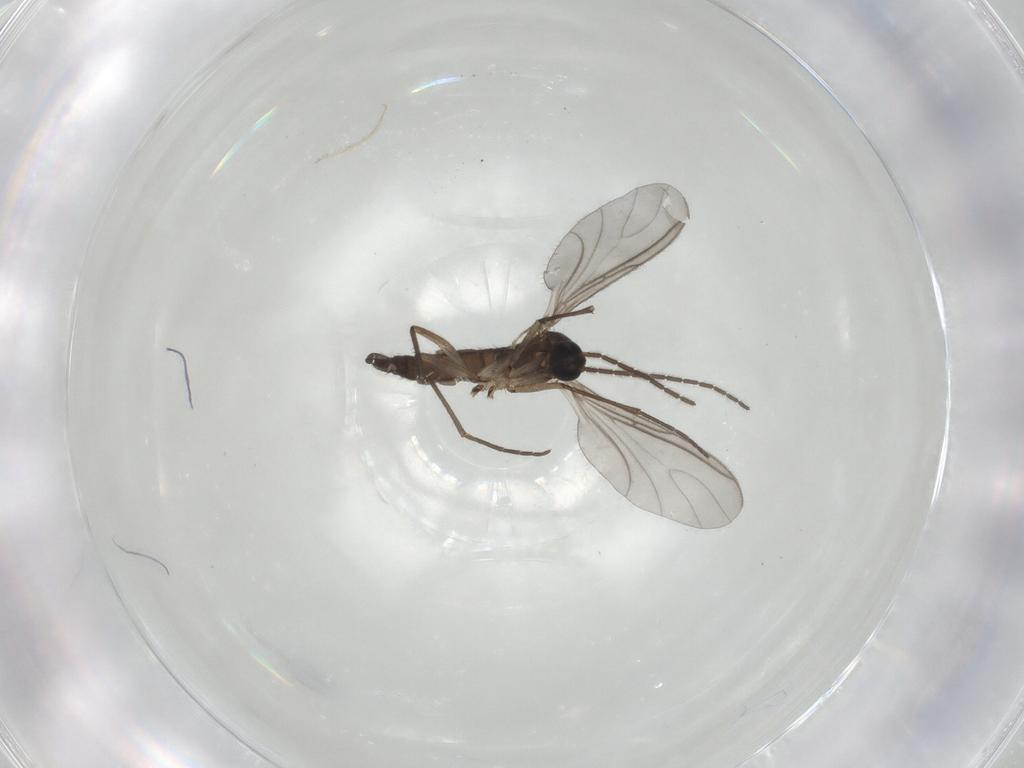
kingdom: Animalia
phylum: Arthropoda
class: Insecta
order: Diptera
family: Sciaridae
